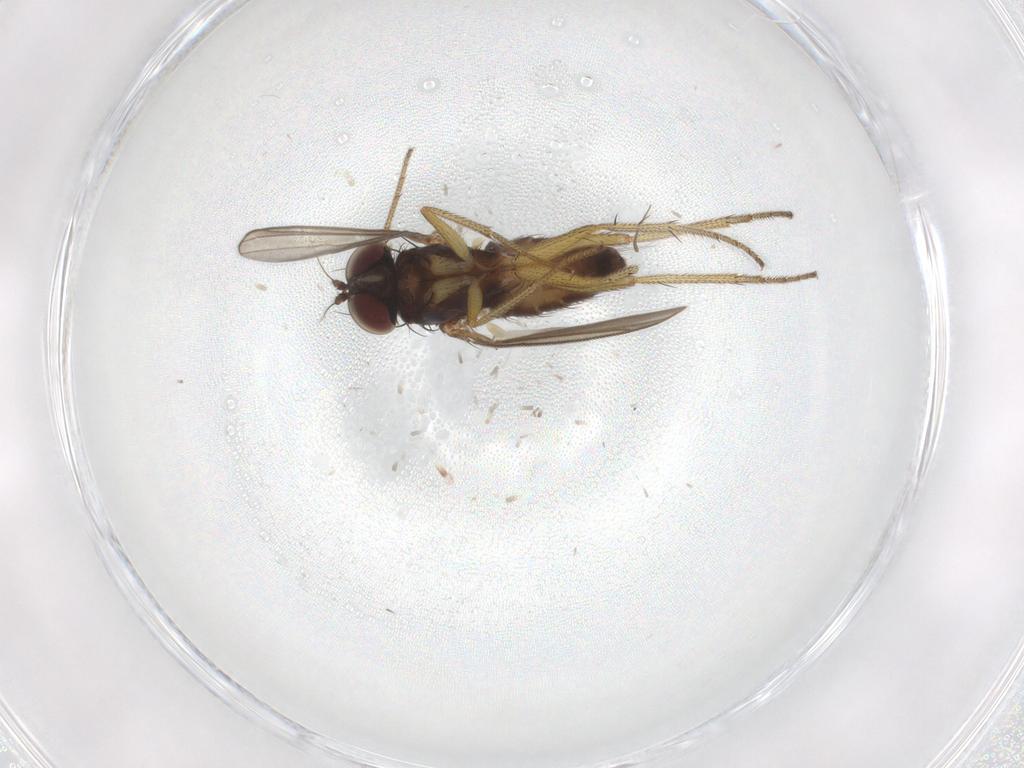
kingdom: Animalia
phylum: Arthropoda
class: Insecta
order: Diptera
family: Chironomidae
